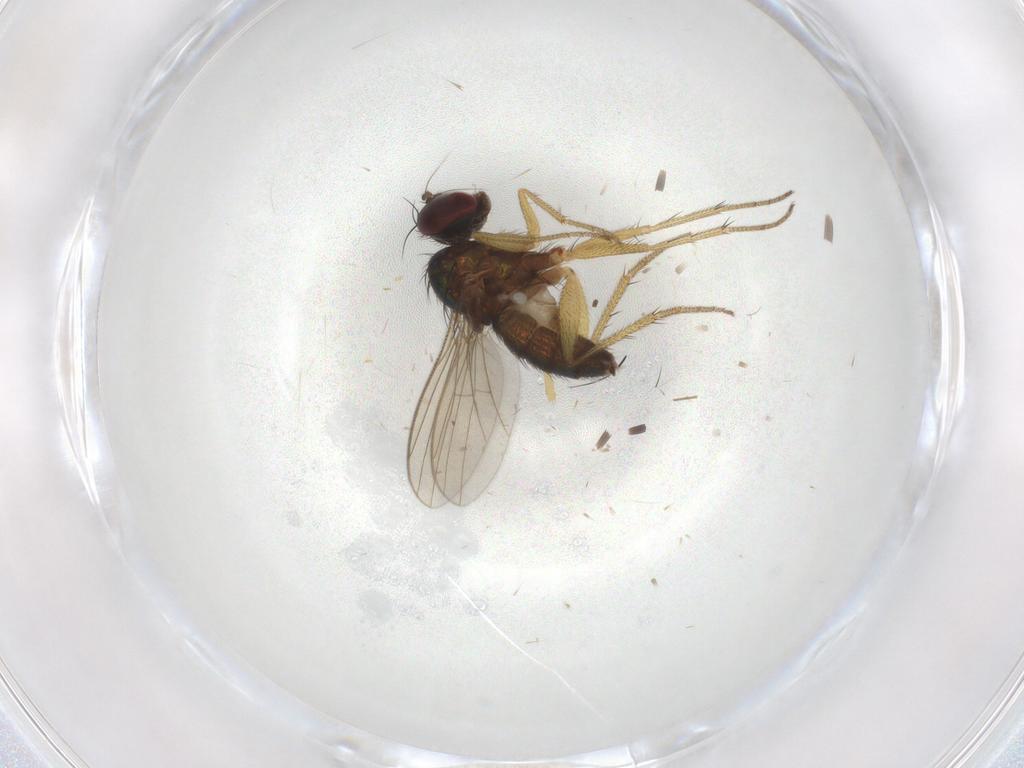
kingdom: Animalia
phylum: Arthropoda
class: Insecta
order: Diptera
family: Dolichopodidae
